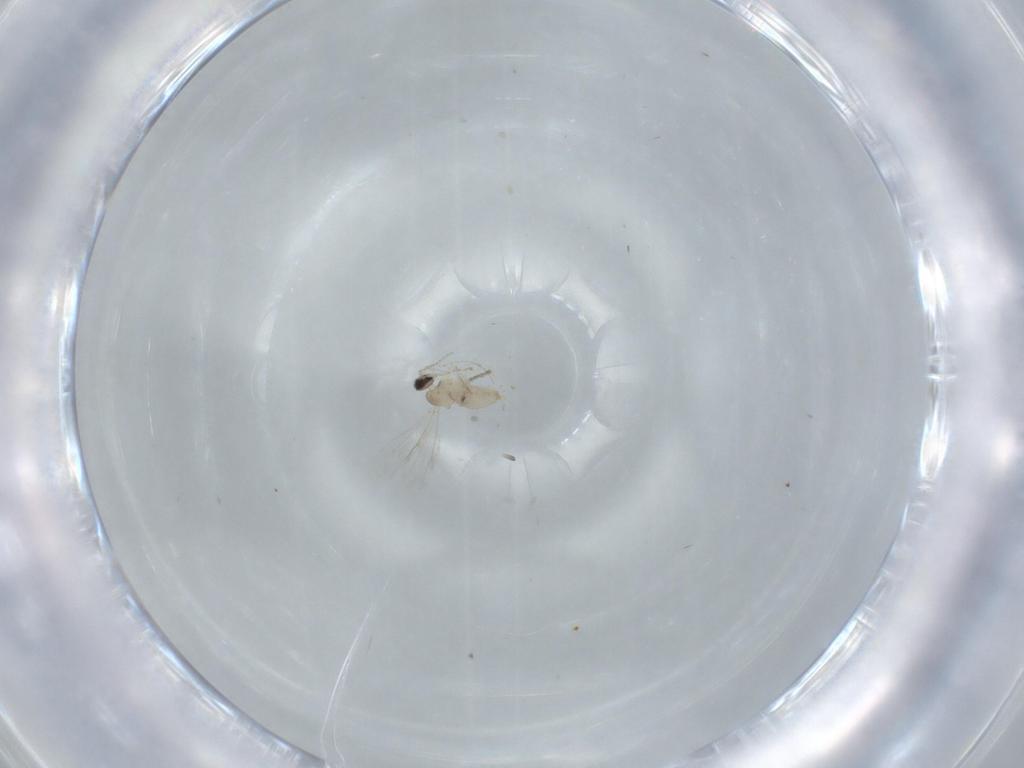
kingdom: Animalia
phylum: Arthropoda
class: Insecta
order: Diptera
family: Cecidomyiidae
